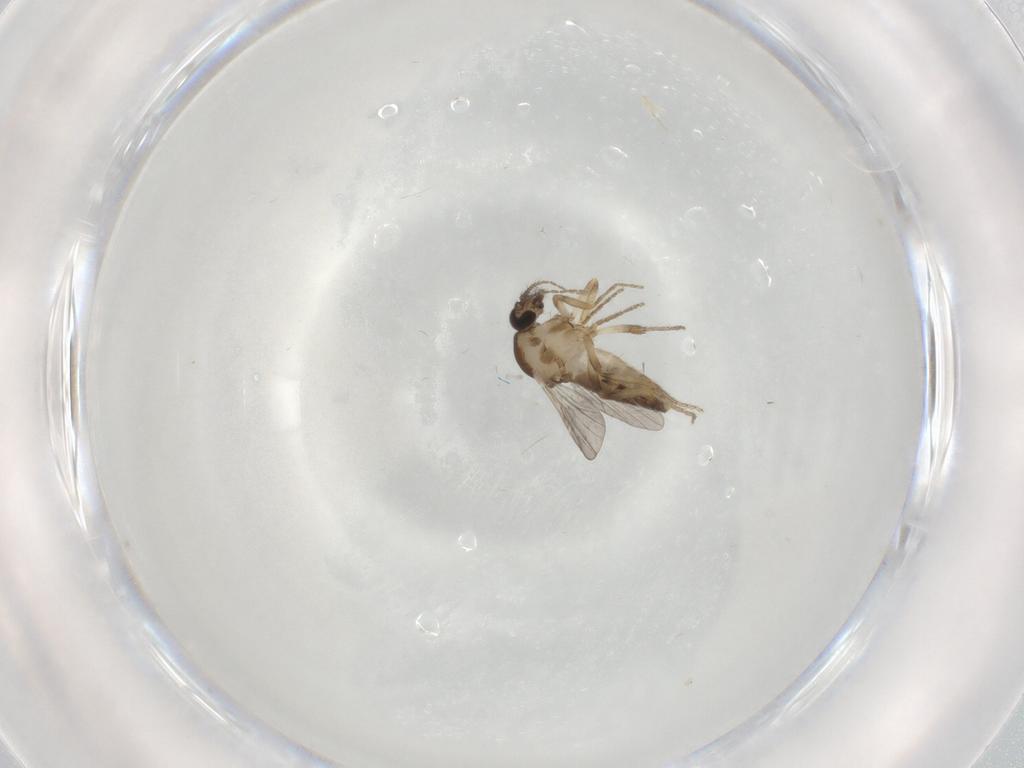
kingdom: Animalia
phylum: Arthropoda
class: Insecta
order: Diptera
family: Ceratopogonidae
